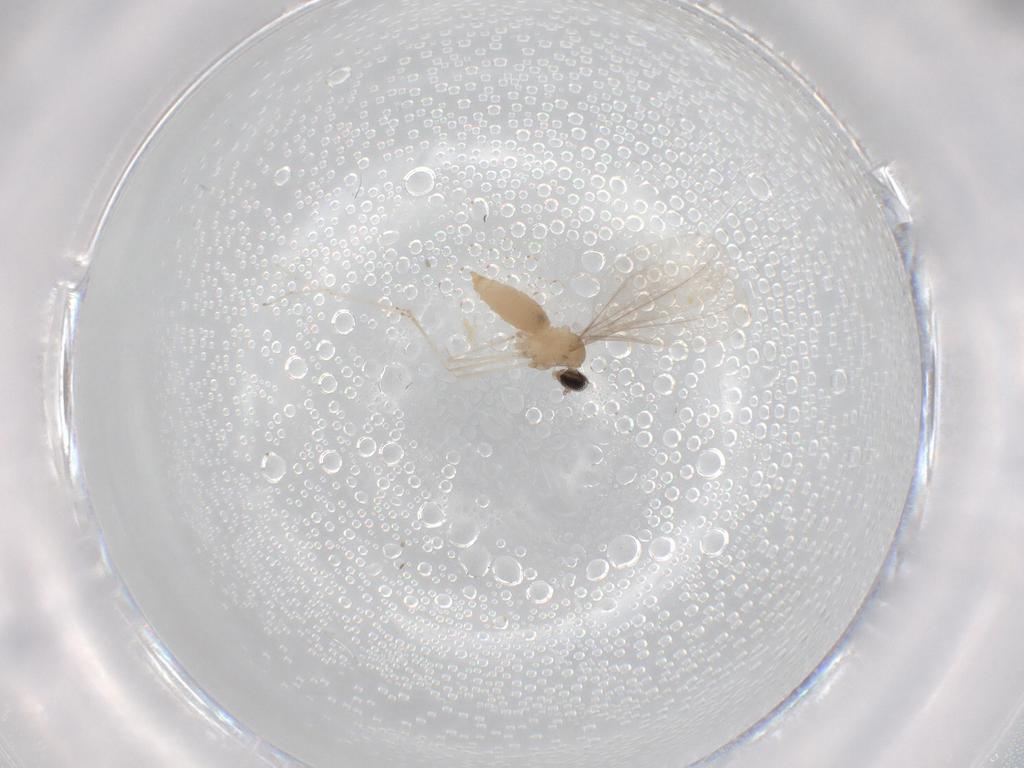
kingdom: Animalia
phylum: Arthropoda
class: Insecta
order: Diptera
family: Cecidomyiidae
